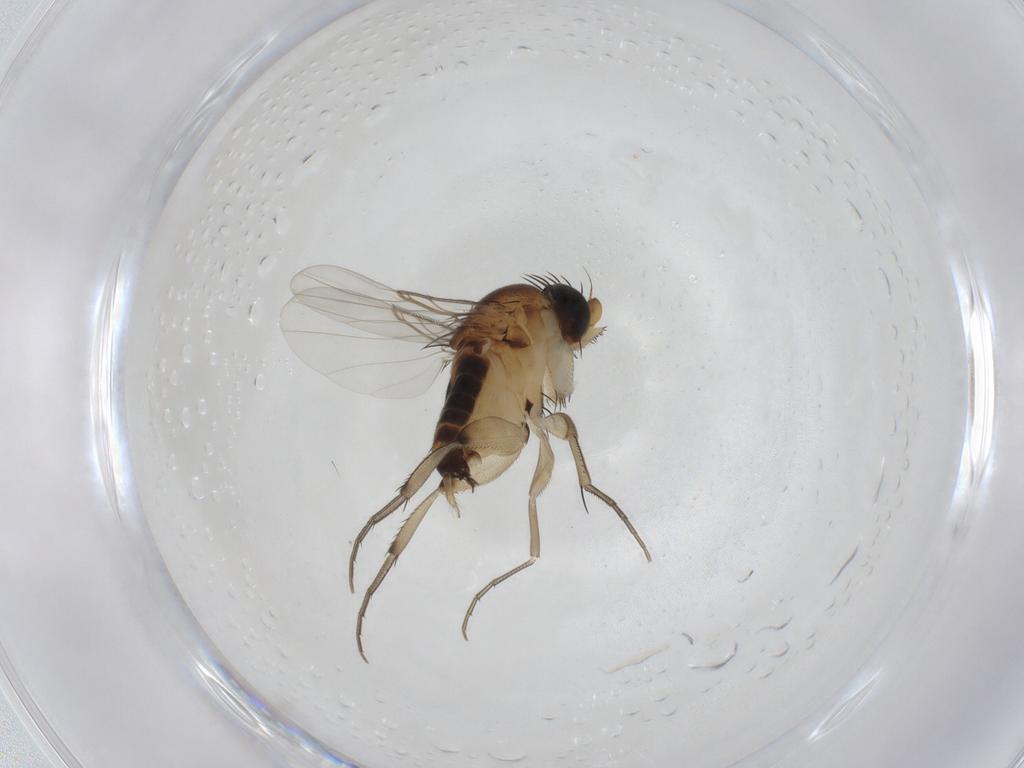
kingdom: Animalia
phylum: Arthropoda
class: Insecta
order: Diptera
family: Phoridae
